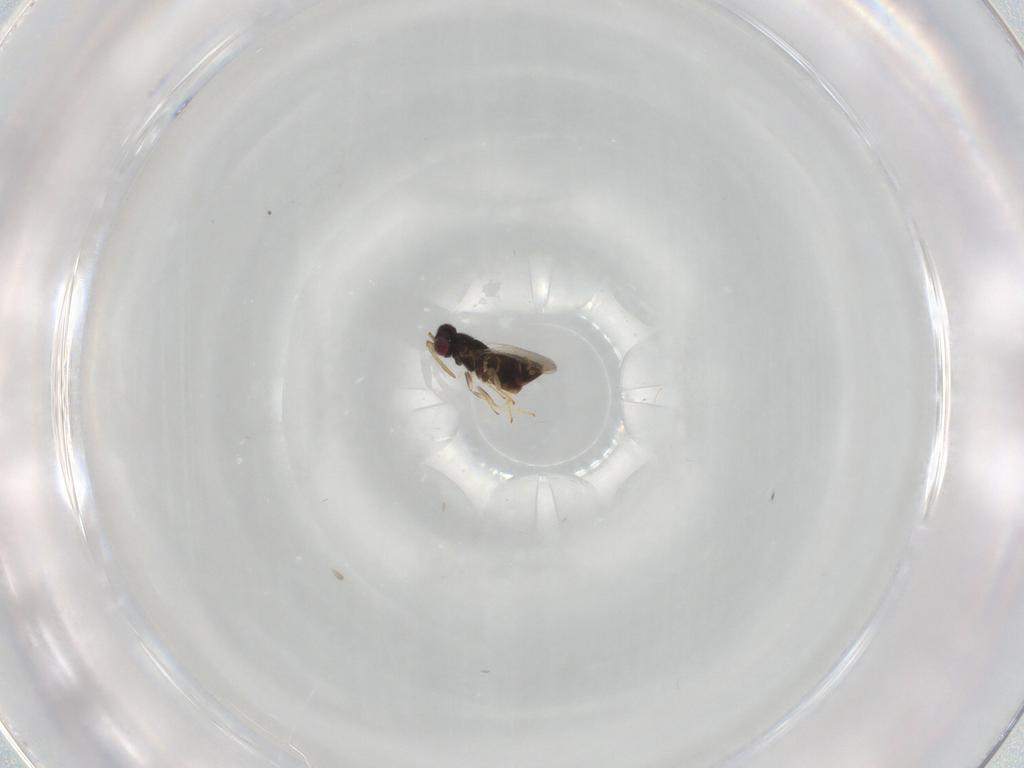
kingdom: Animalia
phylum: Arthropoda
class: Insecta
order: Hymenoptera
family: Aphelinidae
